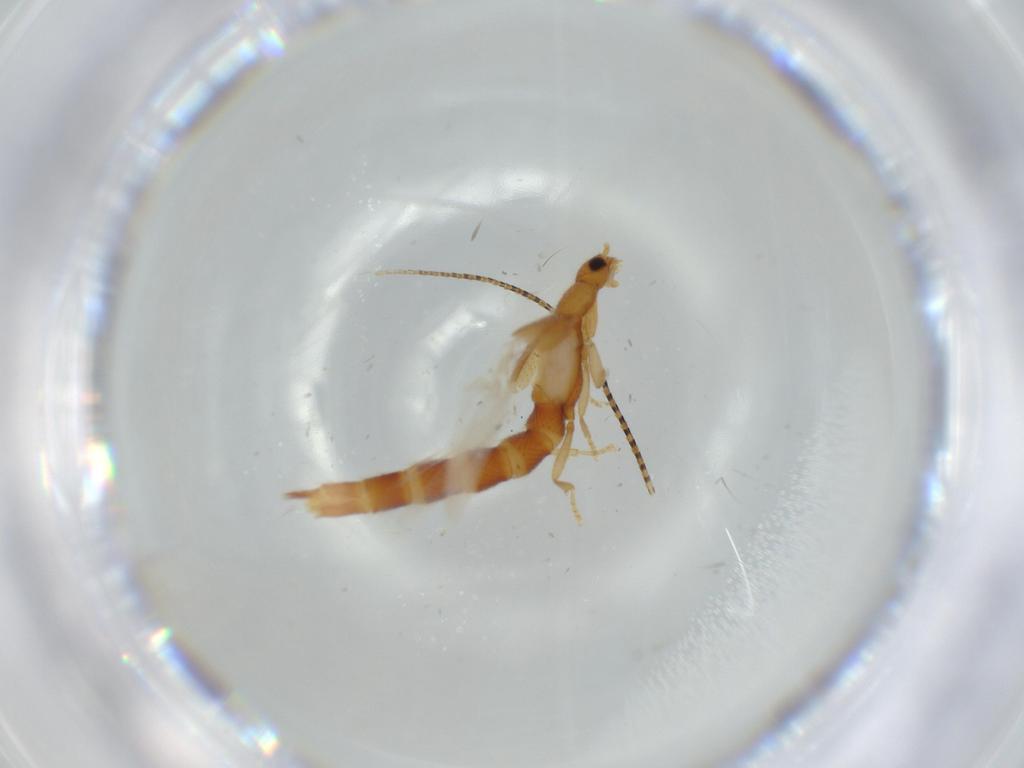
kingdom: Animalia
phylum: Arthropoda
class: Insecta
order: Coleoptera
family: Staphylinidae
